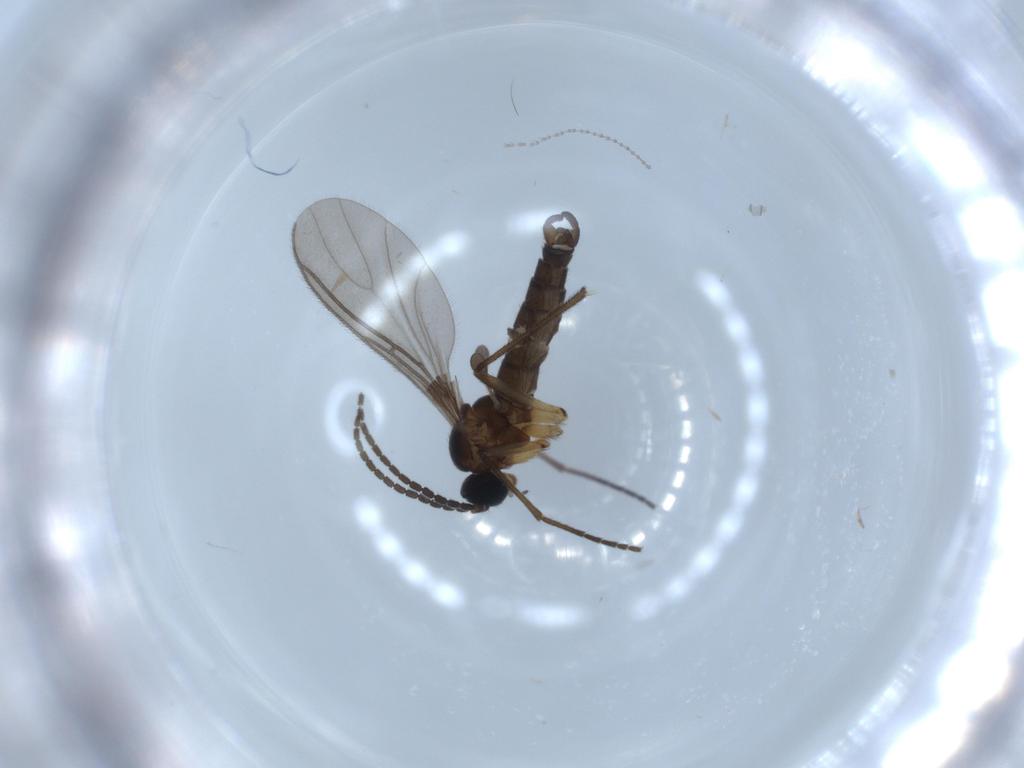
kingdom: Animalia
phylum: Arthropoda
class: Insecta
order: Diptera
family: Sciaridae
